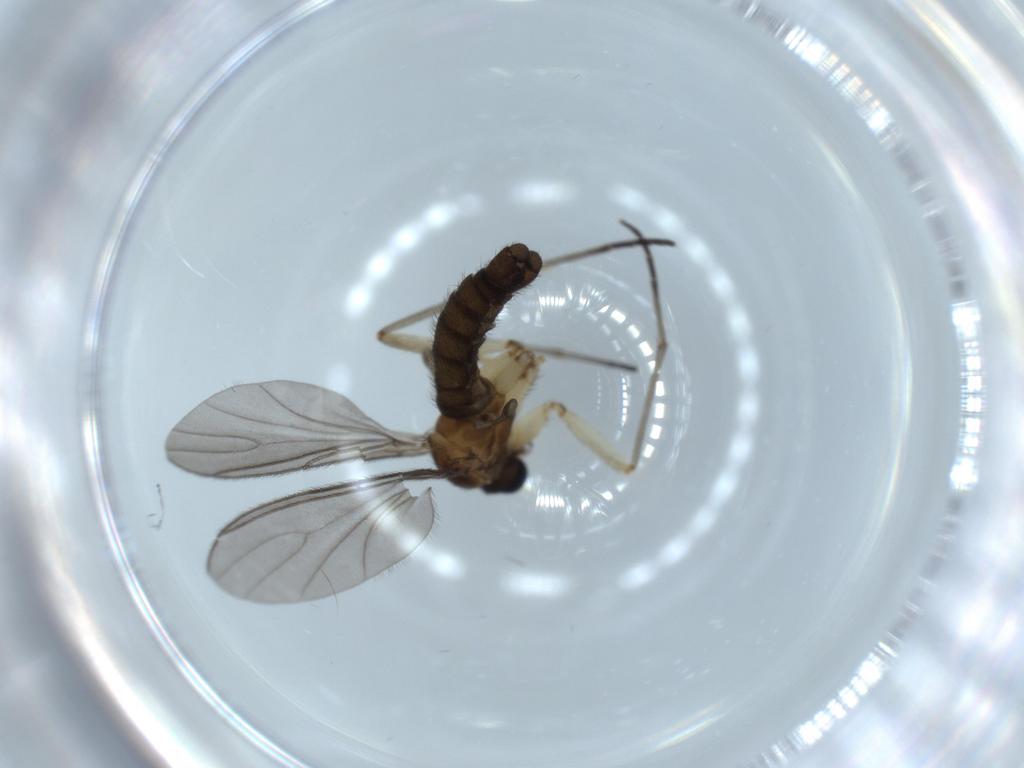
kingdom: Animalia
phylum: Arthropoda
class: Insecta
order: Diptera
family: Sciaridae
